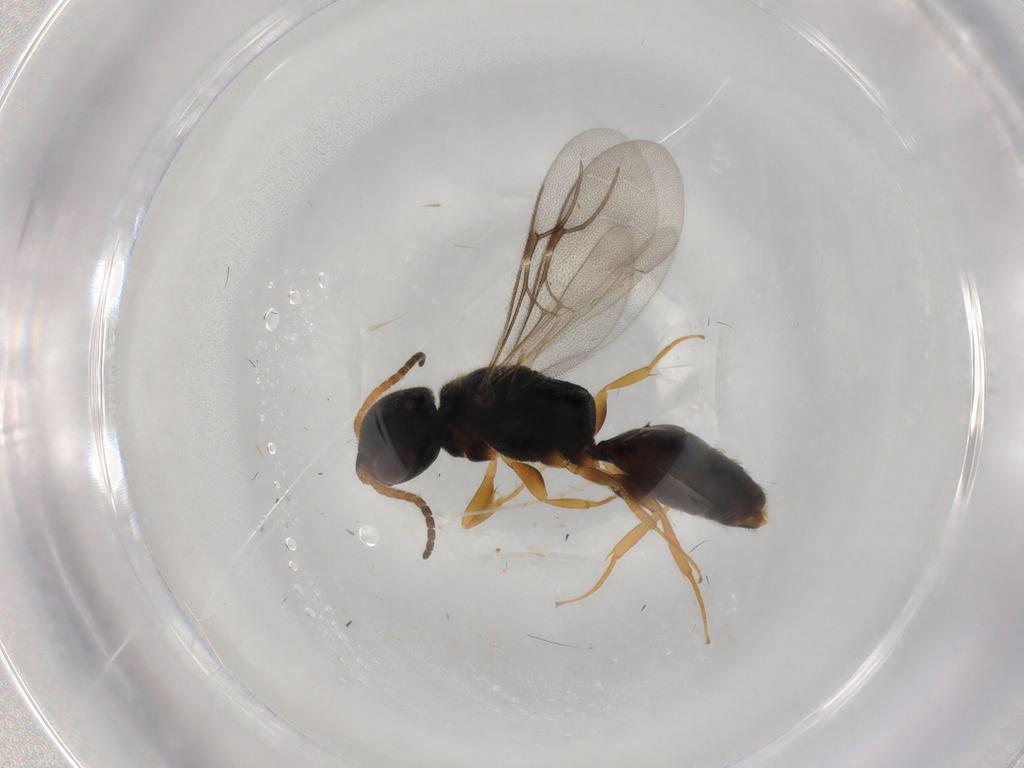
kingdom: Animalia
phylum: Arthropoda
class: Insecta
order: Hymenoptera
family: Bethylidae
